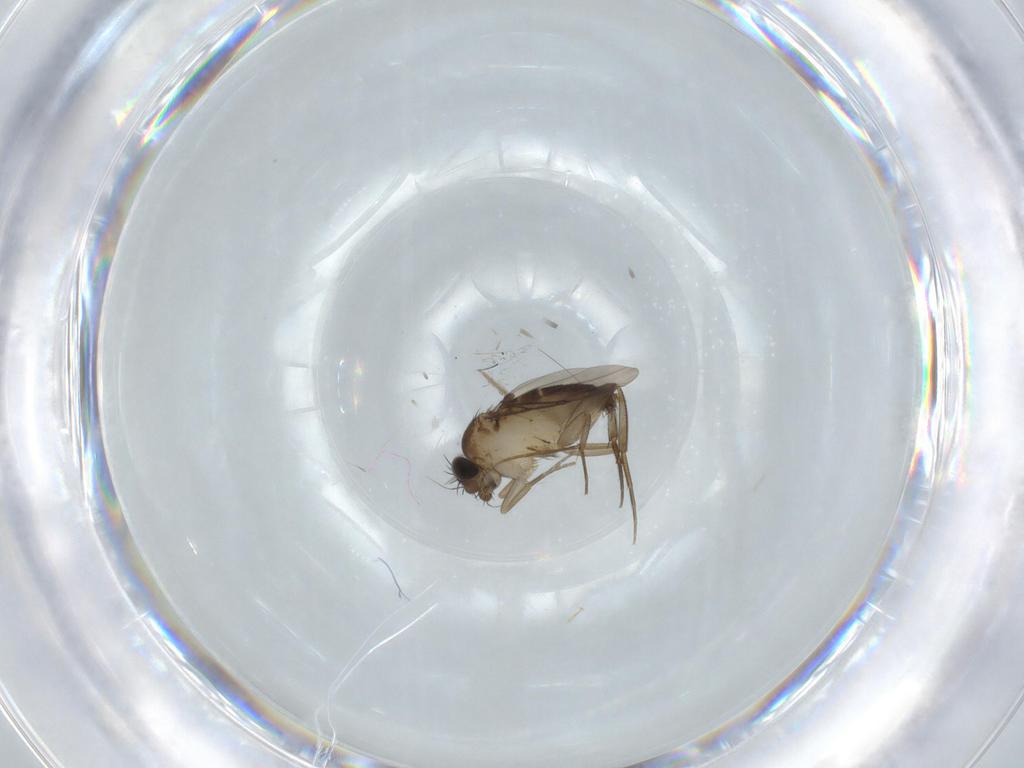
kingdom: Animalia
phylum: Arthropoda
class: Insecta
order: Diptera
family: Phoridae
